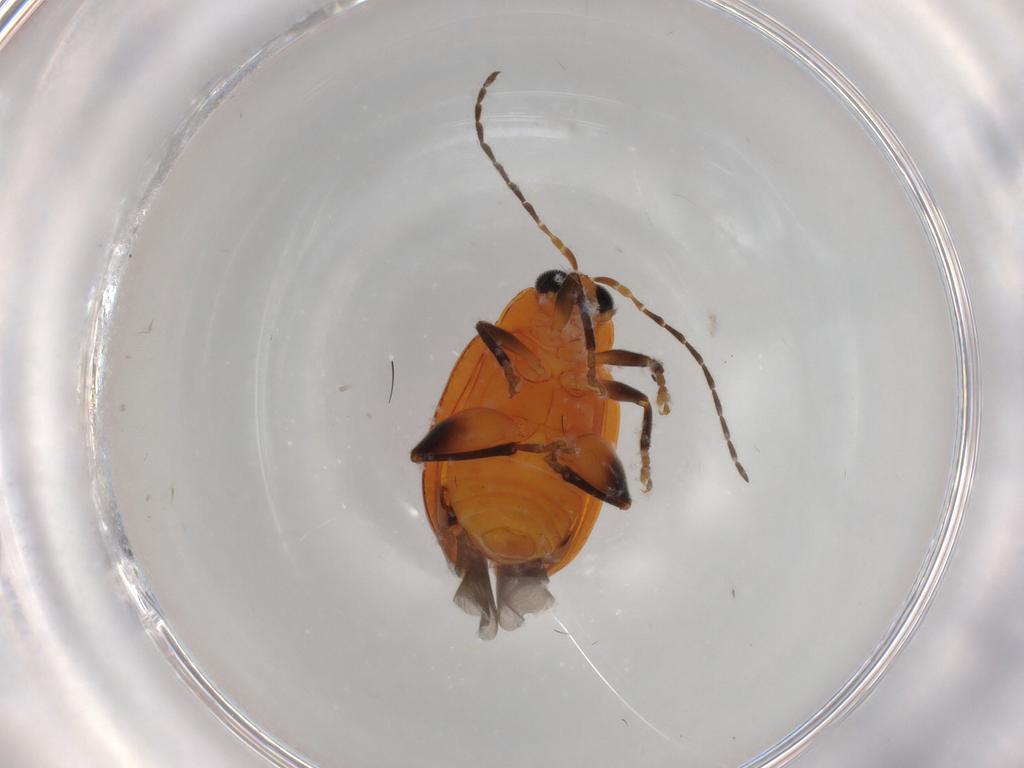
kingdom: Animalia
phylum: Arthropoda
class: Insecta
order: Coleoptera
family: Chrysomelidae
